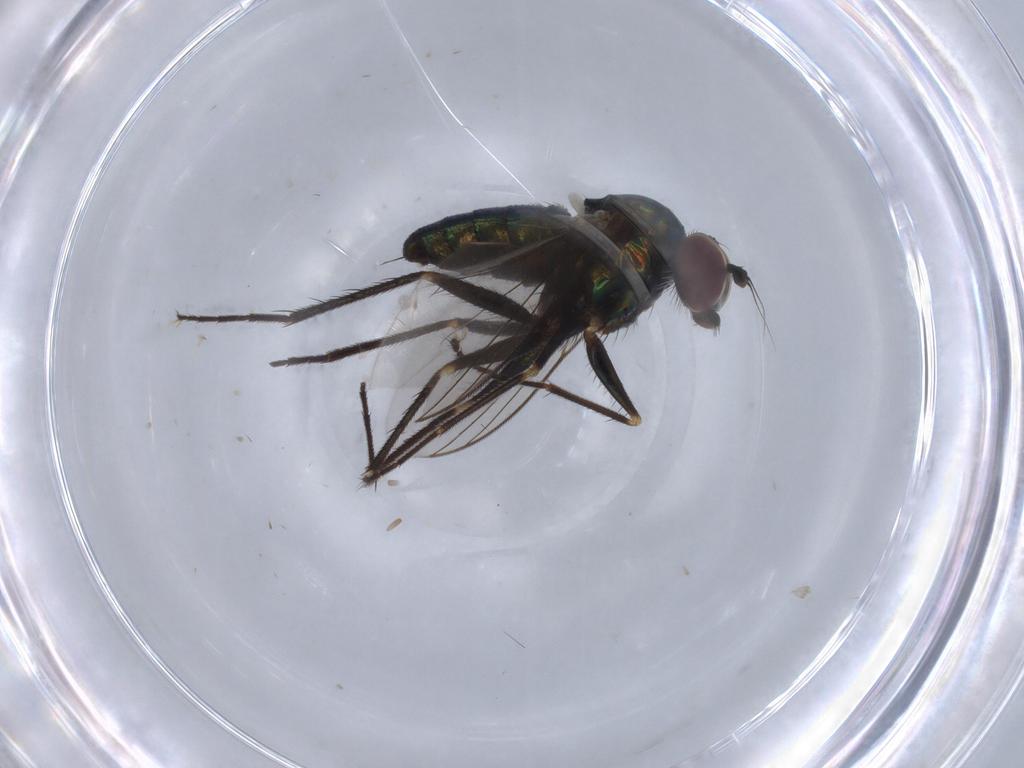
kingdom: Animalia
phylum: Arthropoda
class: Insecta
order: Diptera
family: Dolichopodidae
